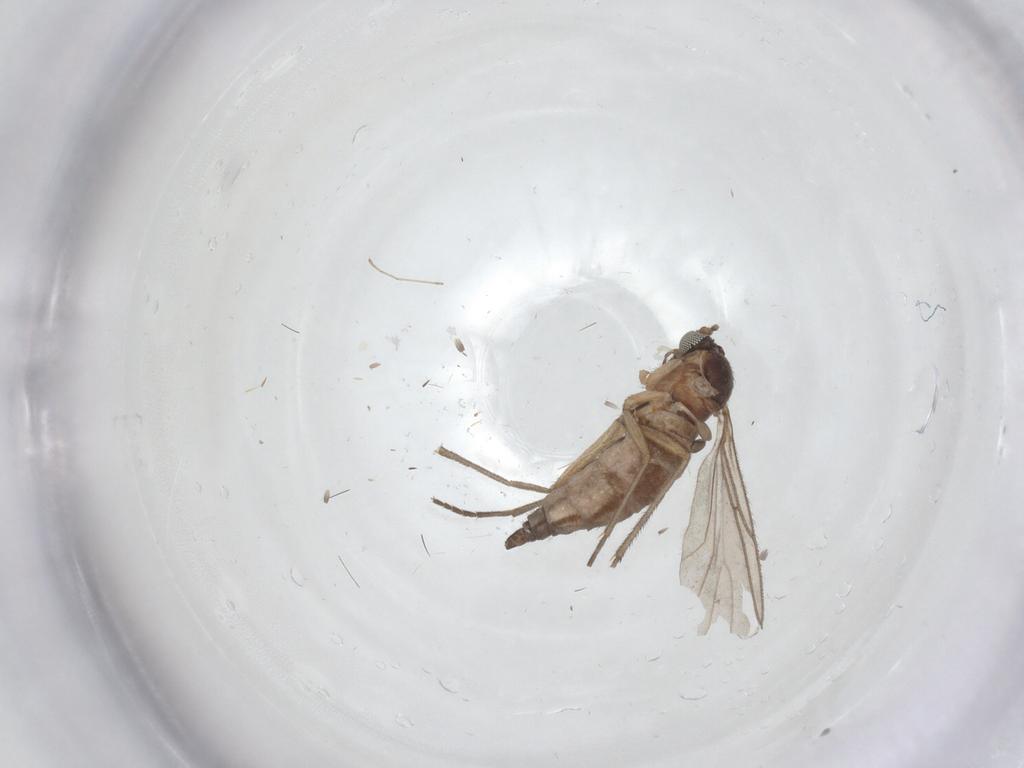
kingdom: Animalia
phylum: Arthropoda
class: Insecta
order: Diptera
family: Sciaridae
